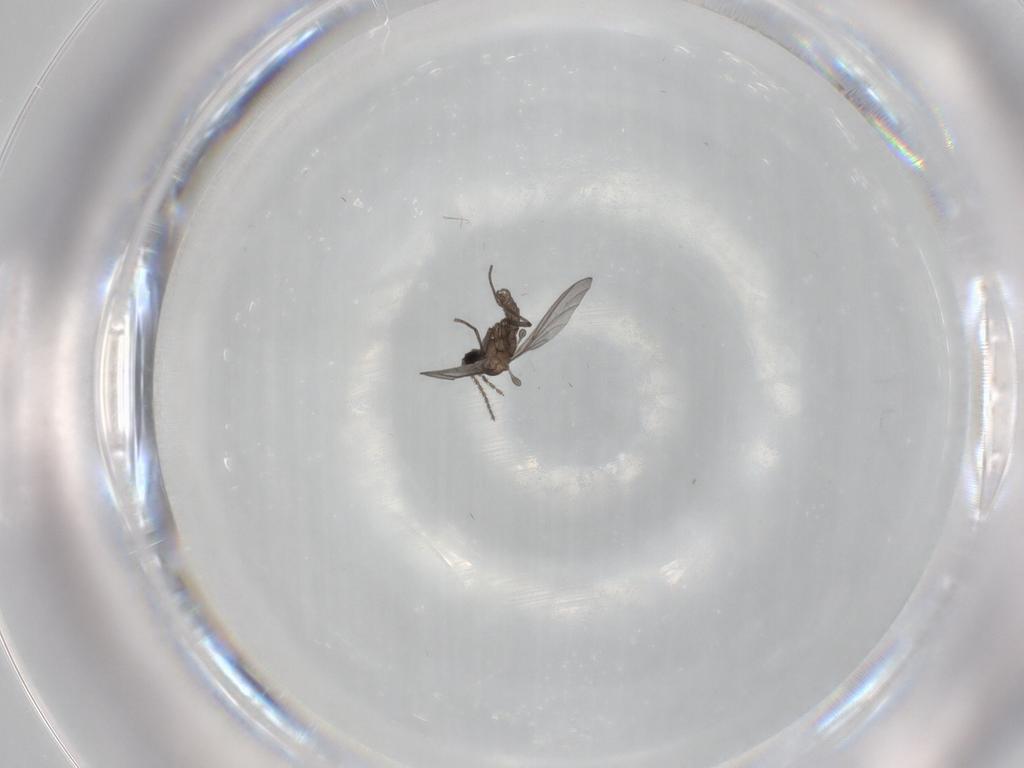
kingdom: Animalia
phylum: Arthropoda
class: Insecta
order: Diptera
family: Sciaridae
